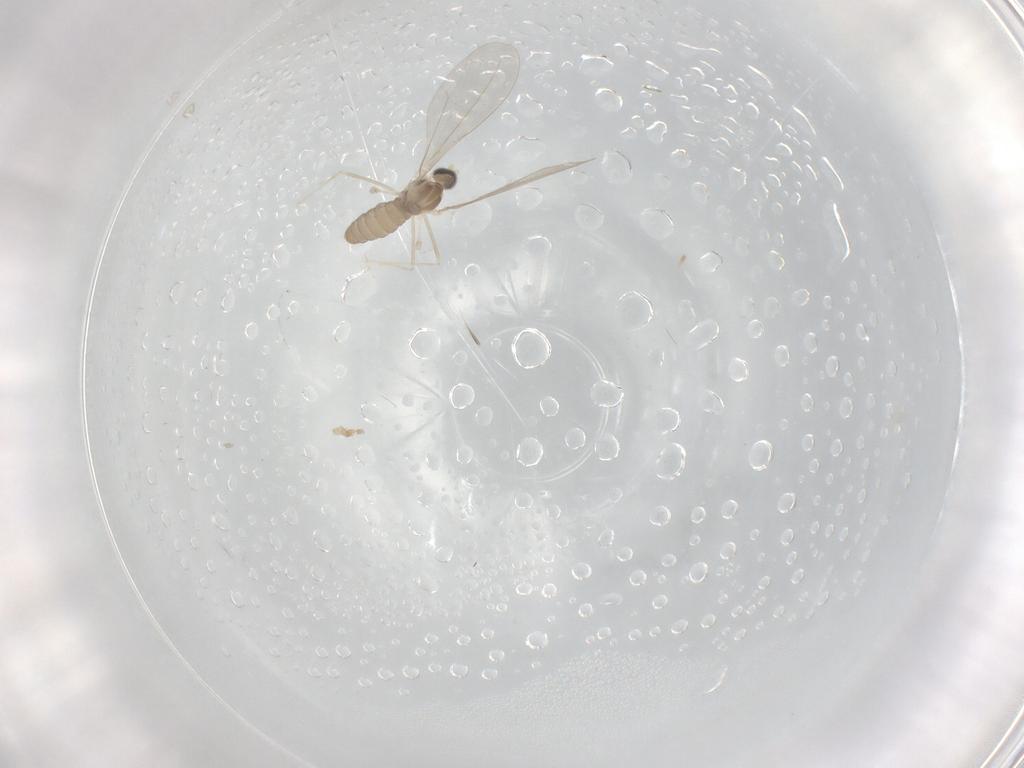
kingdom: Animalia
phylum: Arthropoda
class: Insecta
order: Diptera
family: Cecidomyiidae
